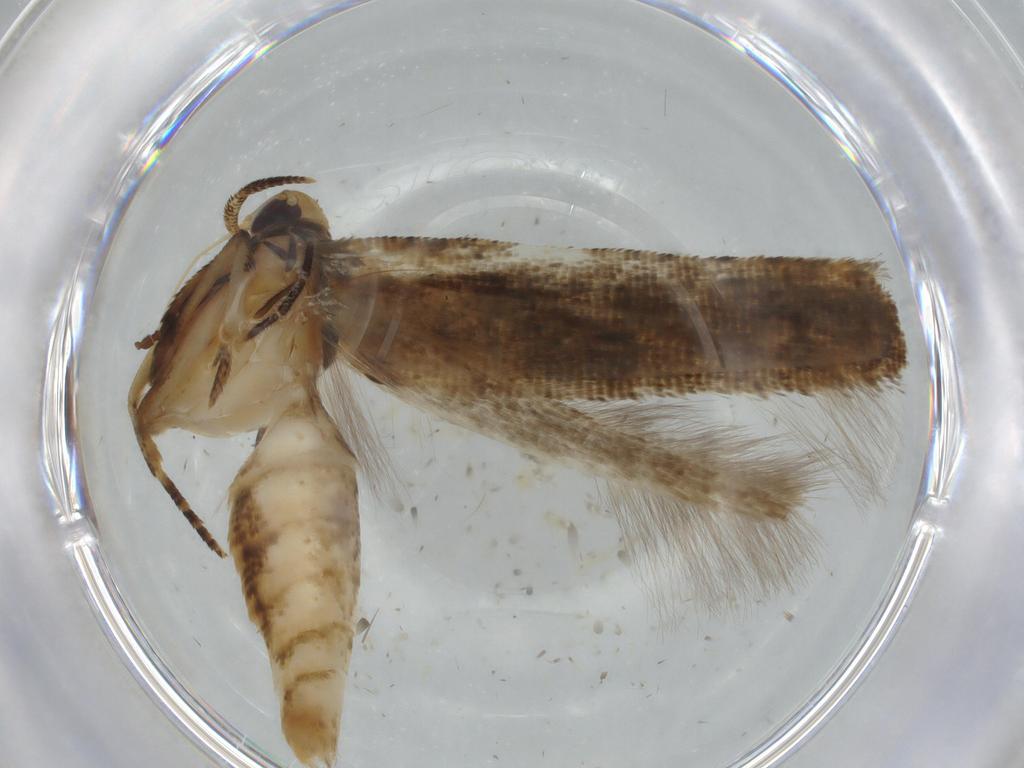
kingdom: Animalia
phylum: Arthropoda
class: Insecta
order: Lepidoptera
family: Cosmopterigidae
